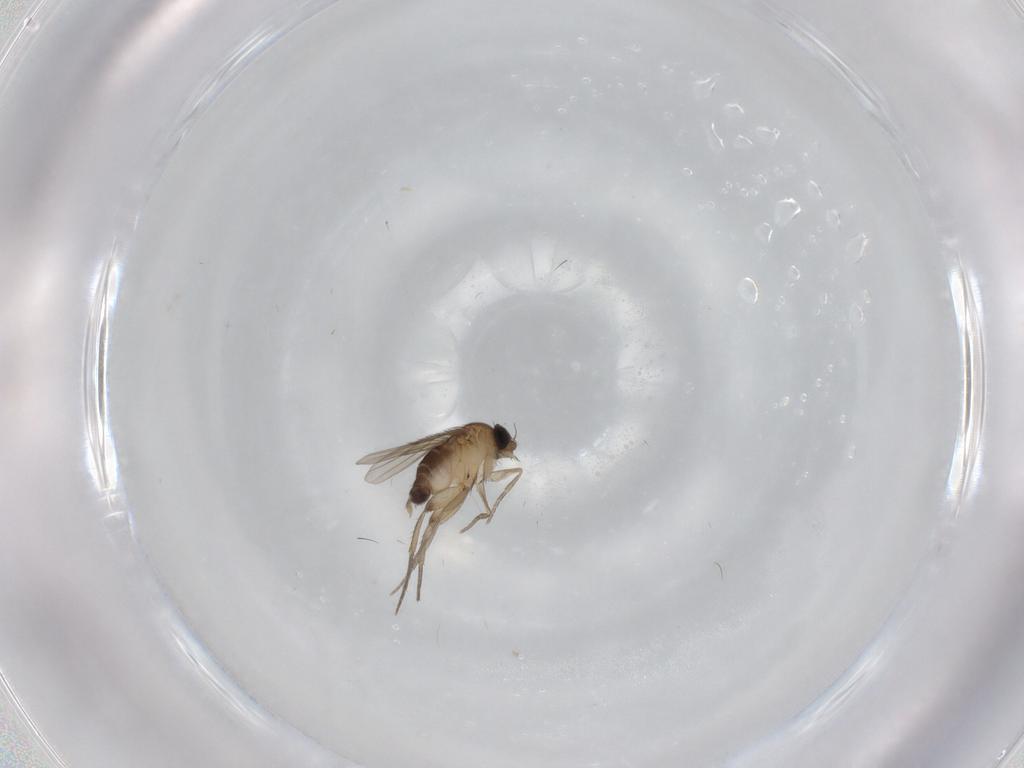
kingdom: Animalia
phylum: Arthropoda
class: Insecta
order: Diptera
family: Phoridae
